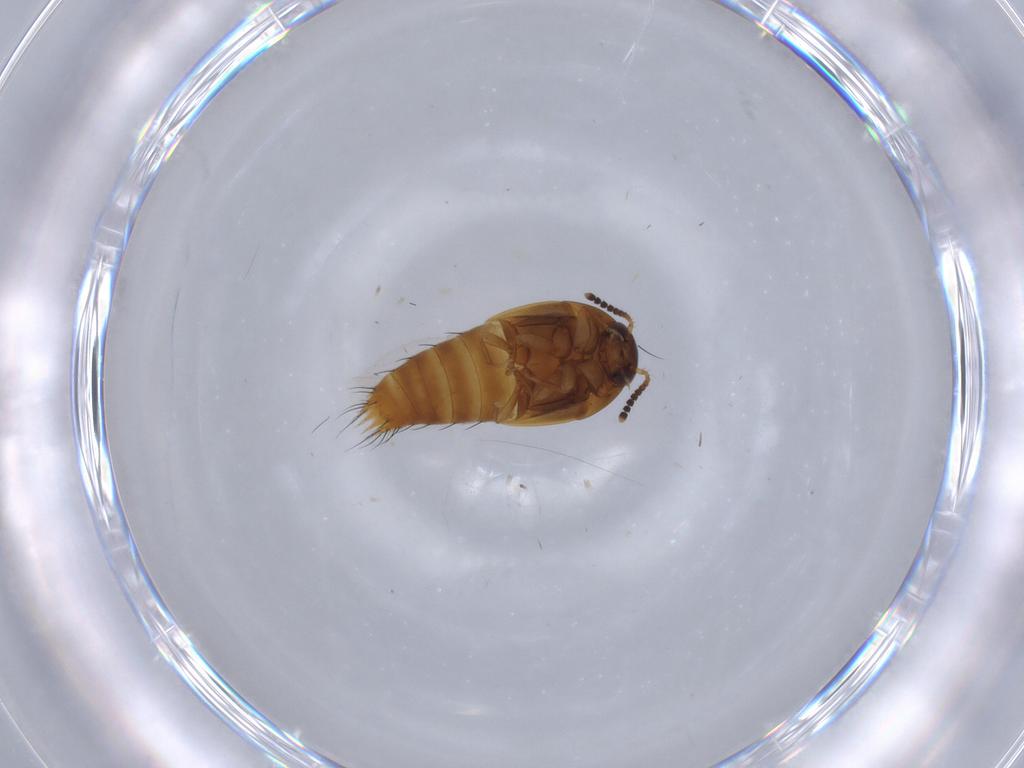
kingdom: Animalia
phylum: Arthropoda
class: Insecta
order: Coleoptera
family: Staphylinidae
